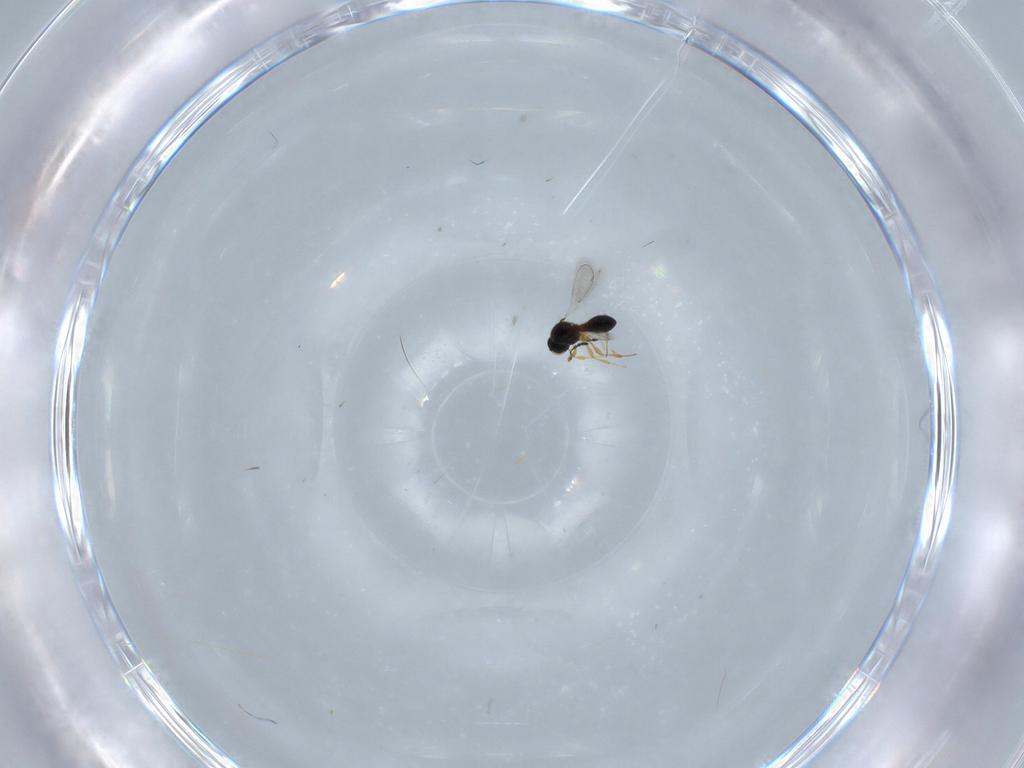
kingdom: Animalia
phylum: Arthropoda
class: Insecta
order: Hymenoptera
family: Platygastridae
